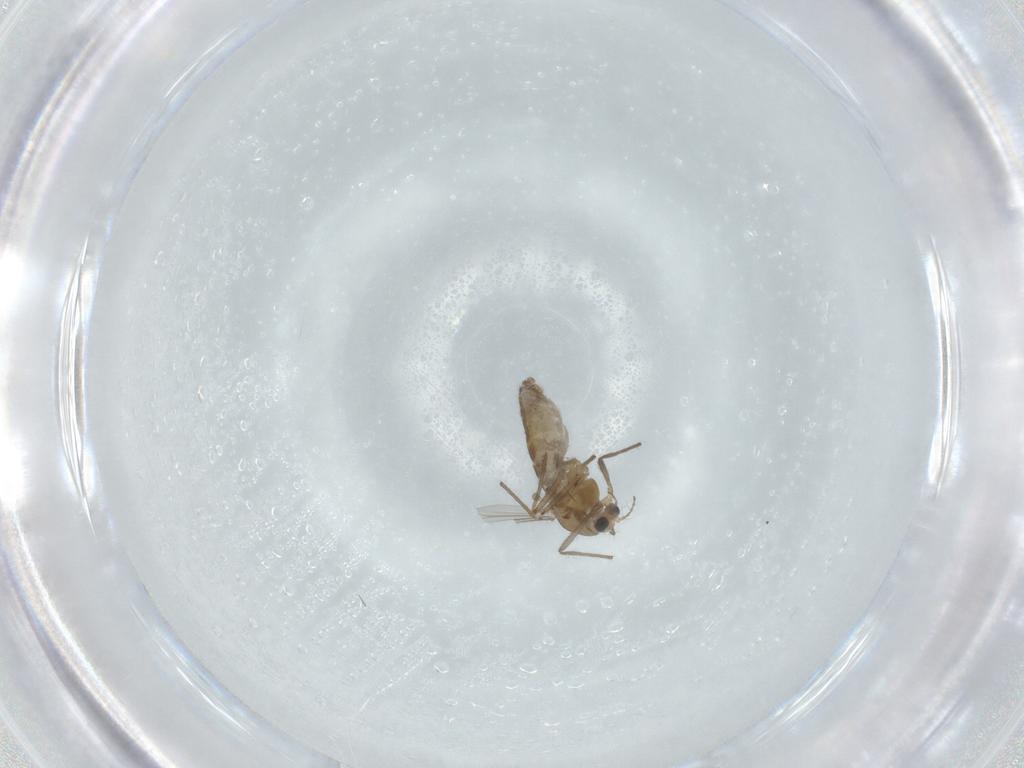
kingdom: Animalia
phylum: Arthropoda
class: Insecta
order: Diptera
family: Chironomidae
